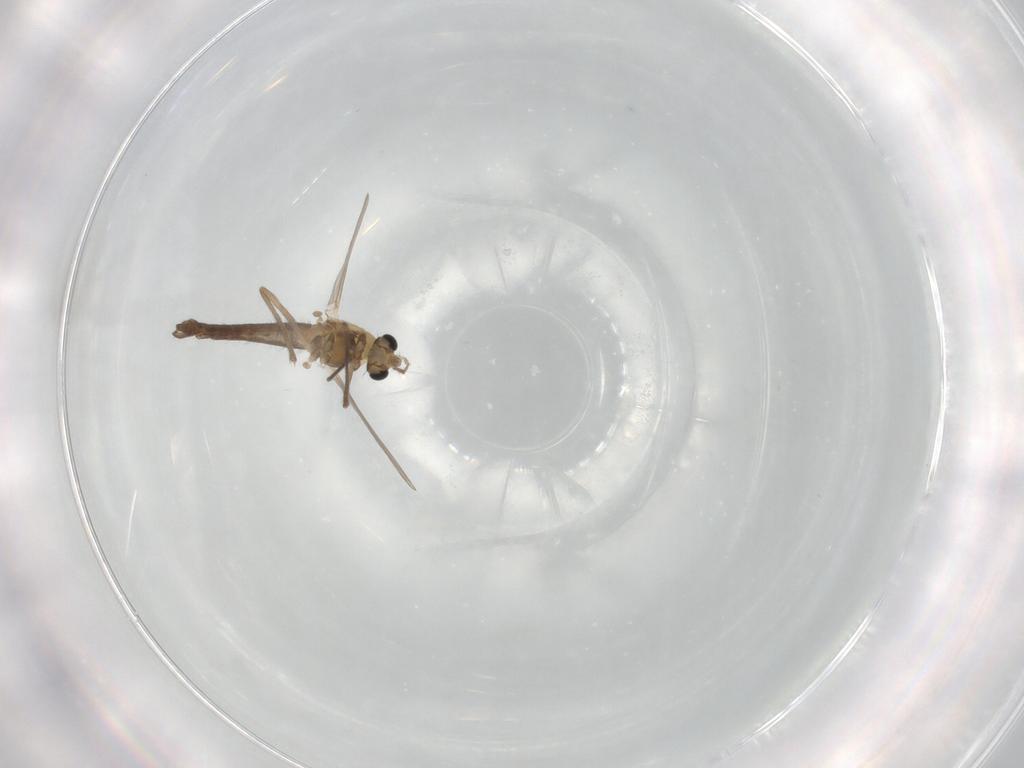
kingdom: Animalia
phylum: Arthropoda
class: Insecta
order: Diptera
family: Chironomidae
